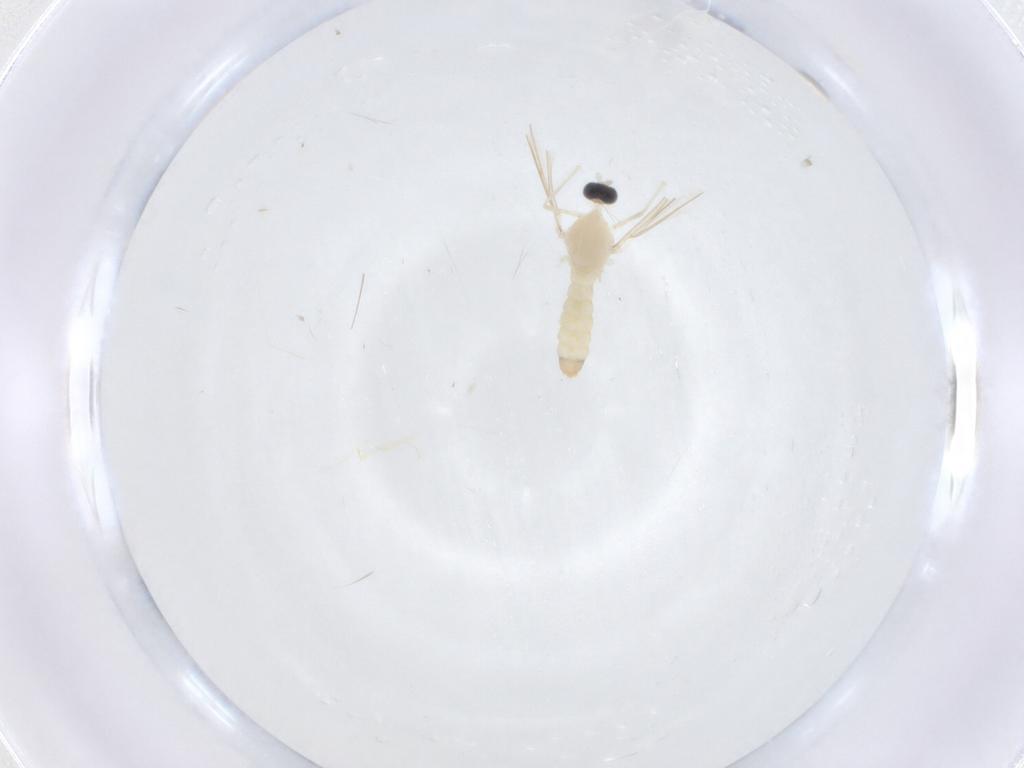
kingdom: Animalia
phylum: Arthropoda
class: Insecta
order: Diptera
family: Cecidomyiidae
